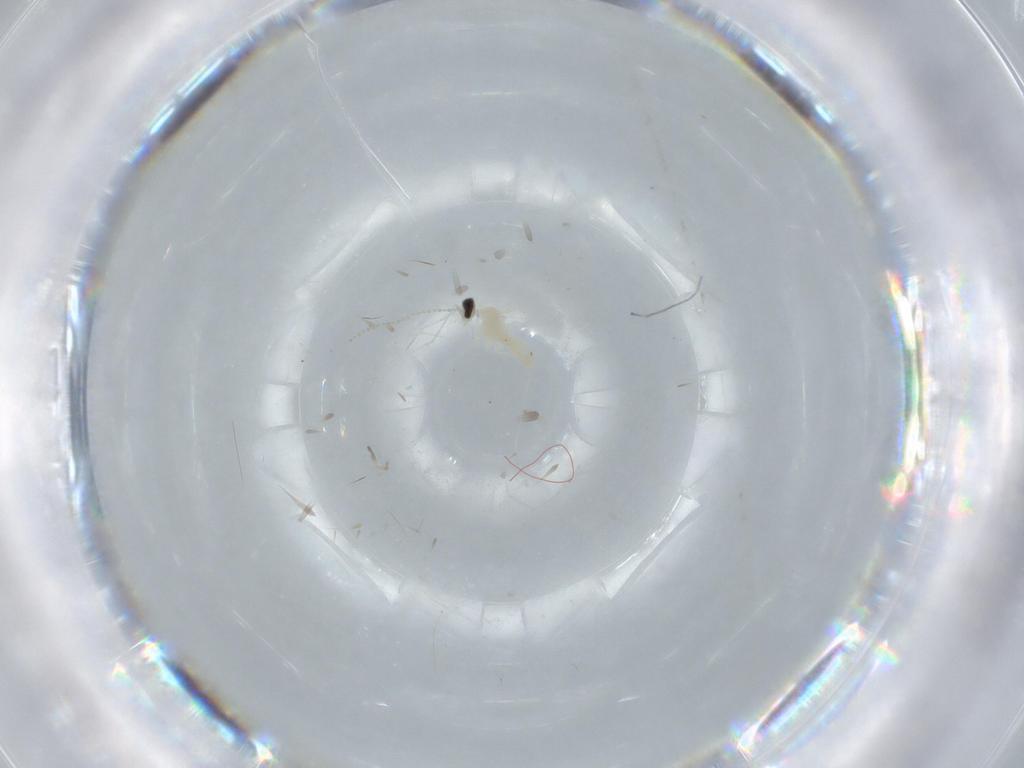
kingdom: Animalia
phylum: Arthropoda
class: Insecta
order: Diptera
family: Cecidomyiidae
